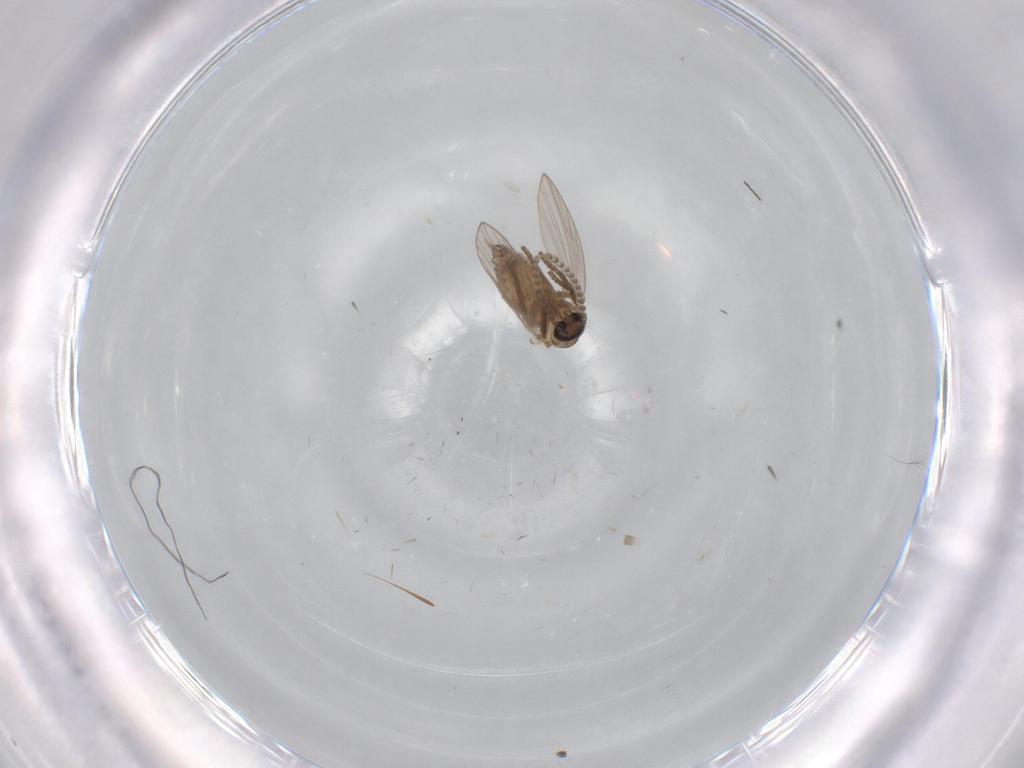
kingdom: Animalia
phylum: Arthropoda
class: Insecta
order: Diptera
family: Psychodidae
